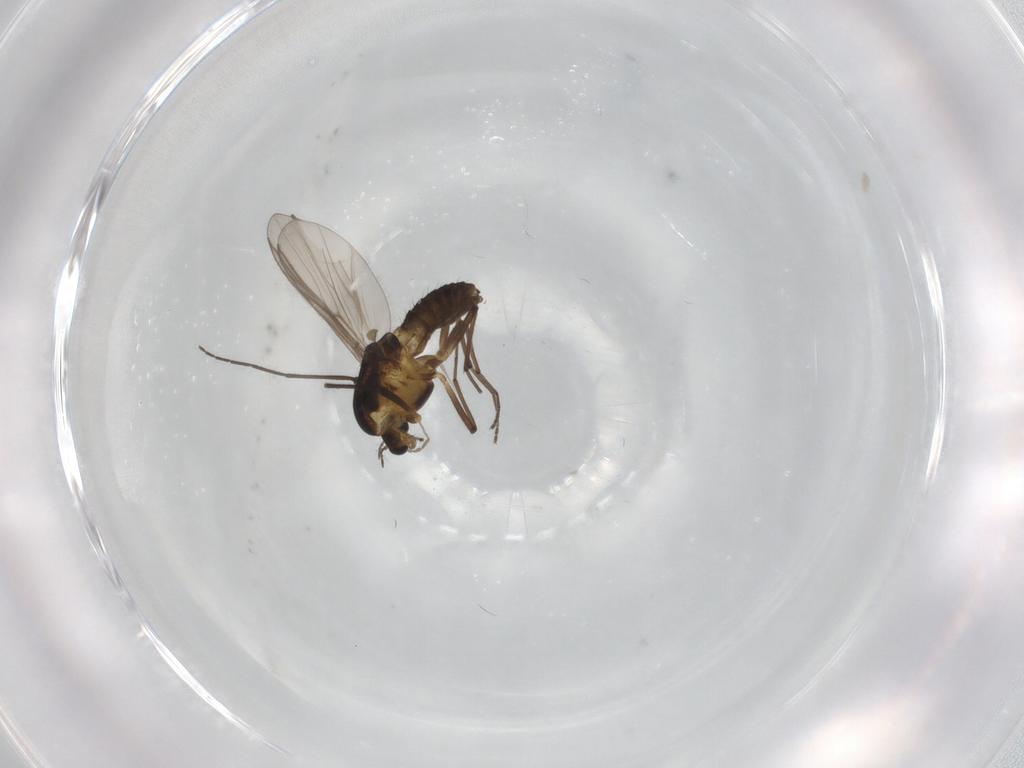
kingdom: Animalia
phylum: Arthropoda
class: Insecta
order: Diptera
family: Chironomidae
